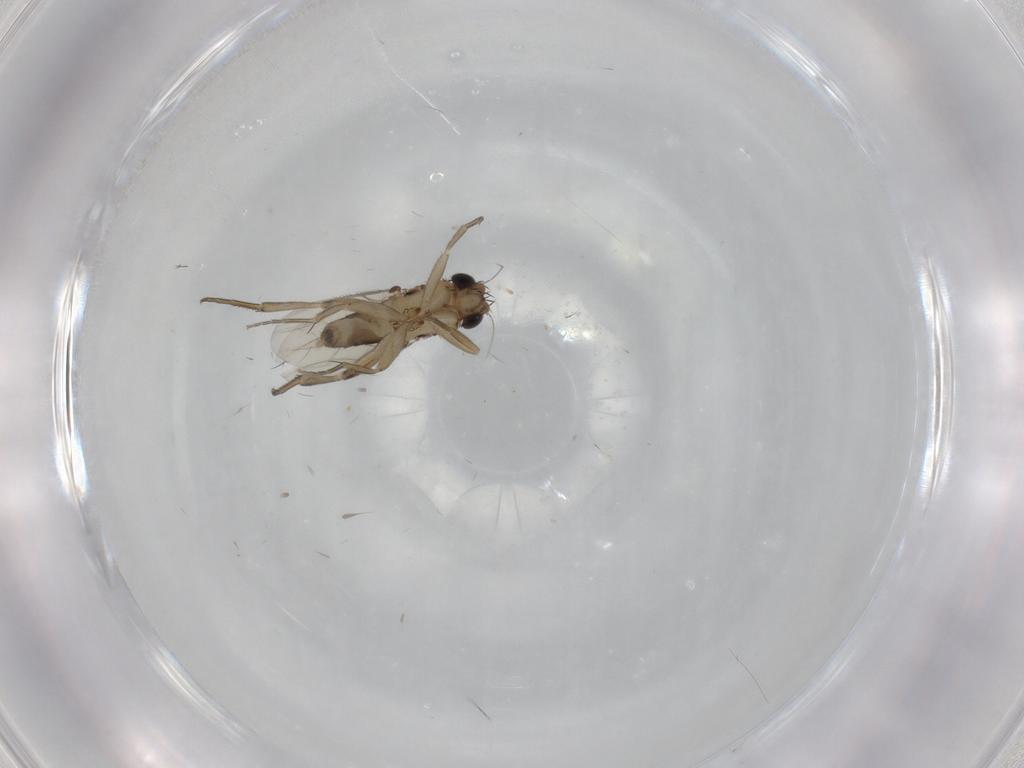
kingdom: Animalia
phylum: Arthropoda
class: Insecta
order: Diptera
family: Phoridae
